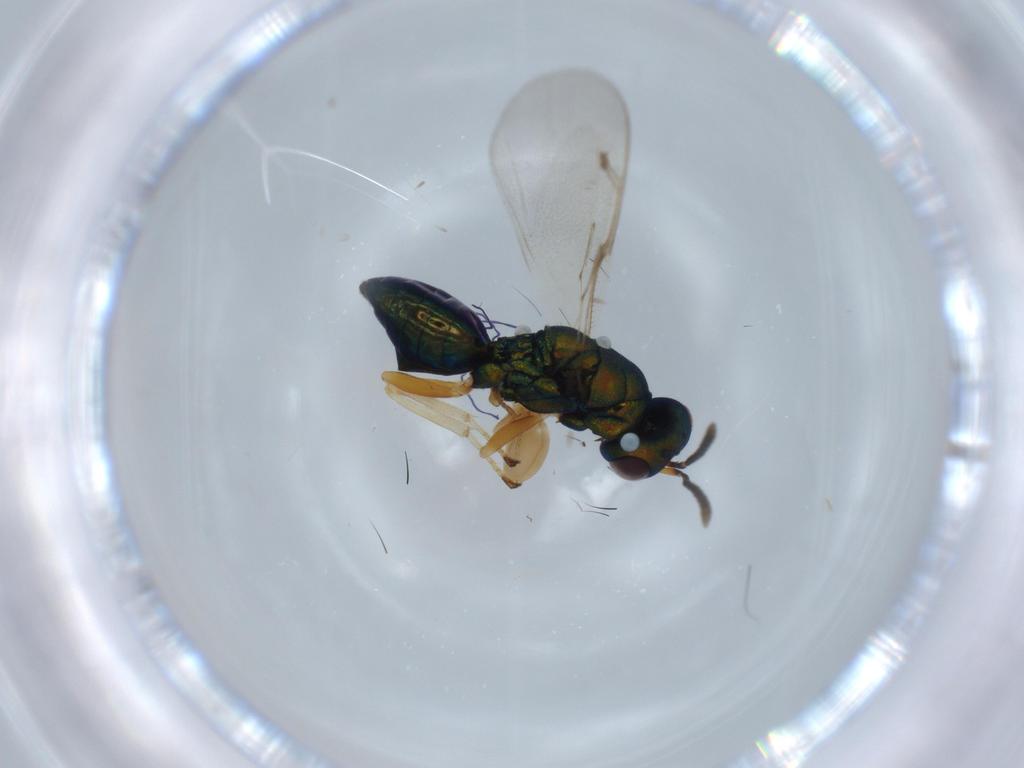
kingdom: Animalia
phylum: Arthropoda
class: Insecta
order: Hymenoptera
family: Pteromalidae
